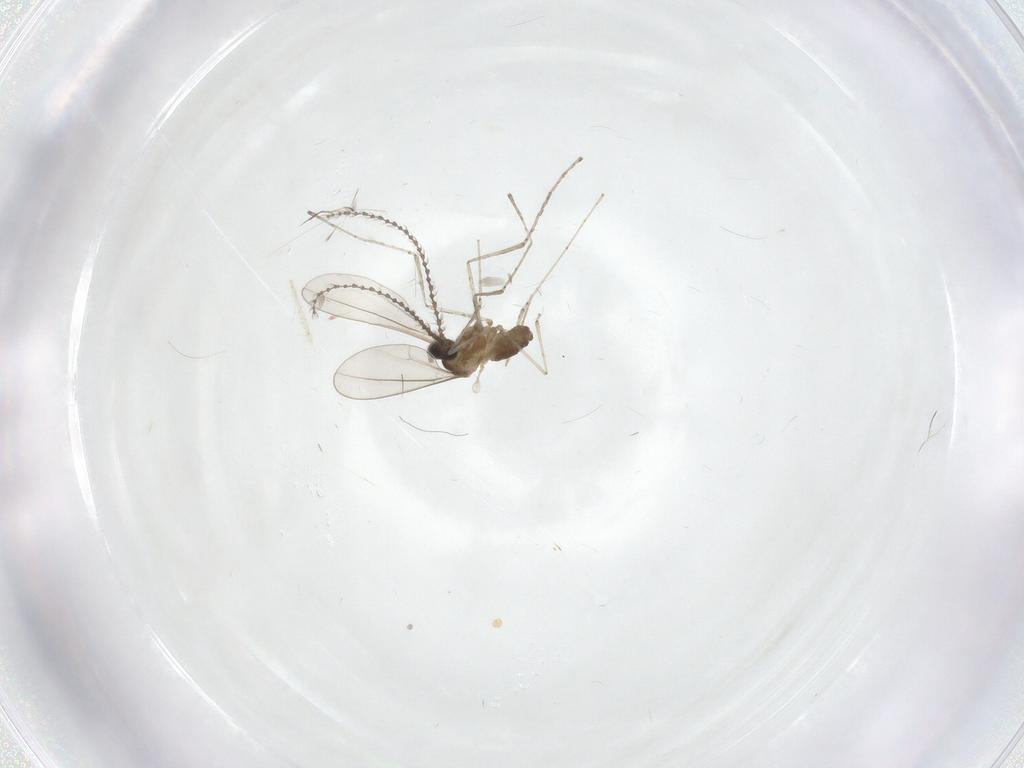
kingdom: Animalia
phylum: Arthropoda
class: Insecta
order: Diptera
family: Cecidomyiidae
